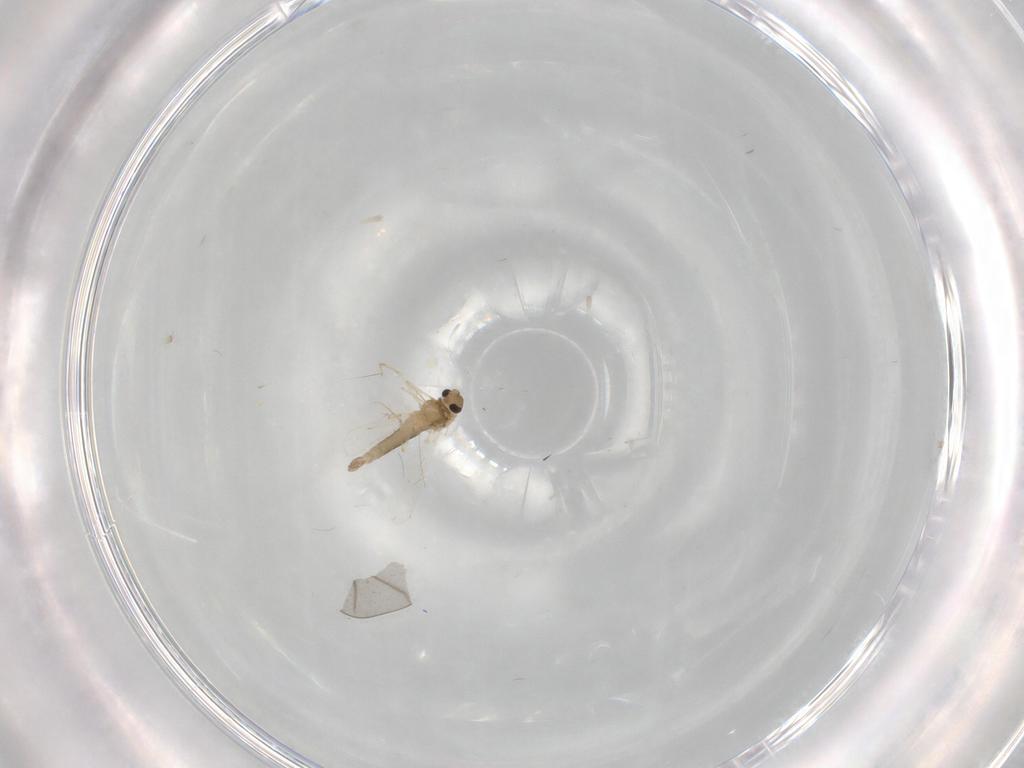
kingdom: Animalia
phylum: Arthropoda
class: Insecta
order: Diptera
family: Chironomidae
